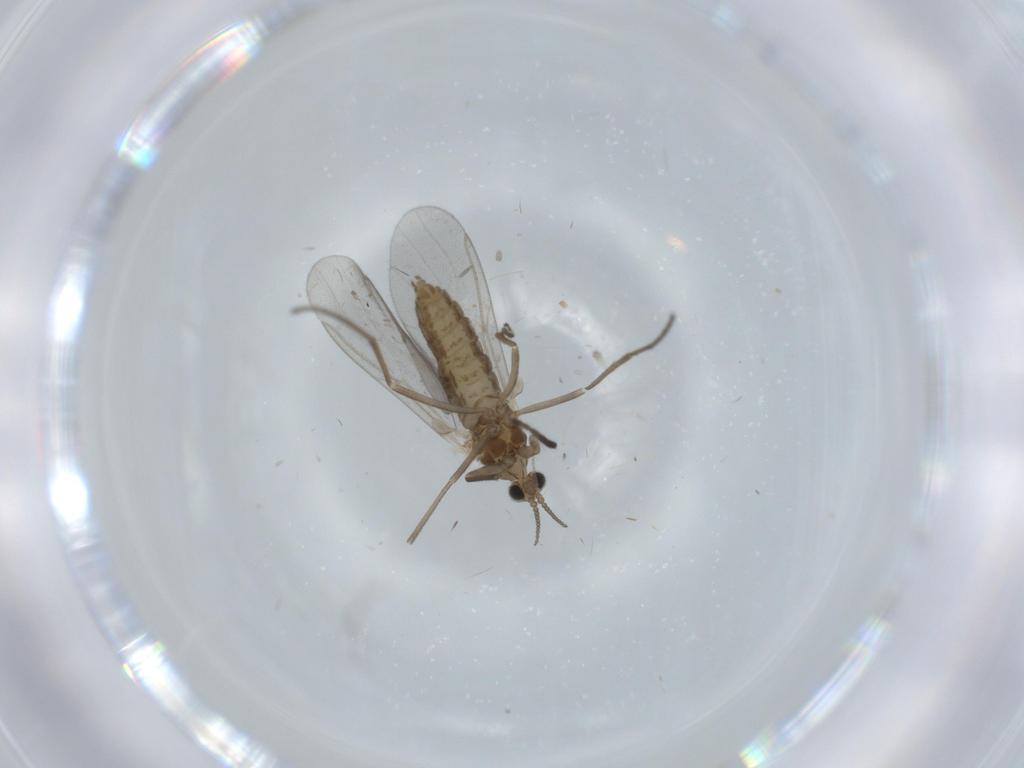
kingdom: Animalia
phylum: Arthropoda
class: Insecta
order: Diptera
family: Cecidomyiidae
